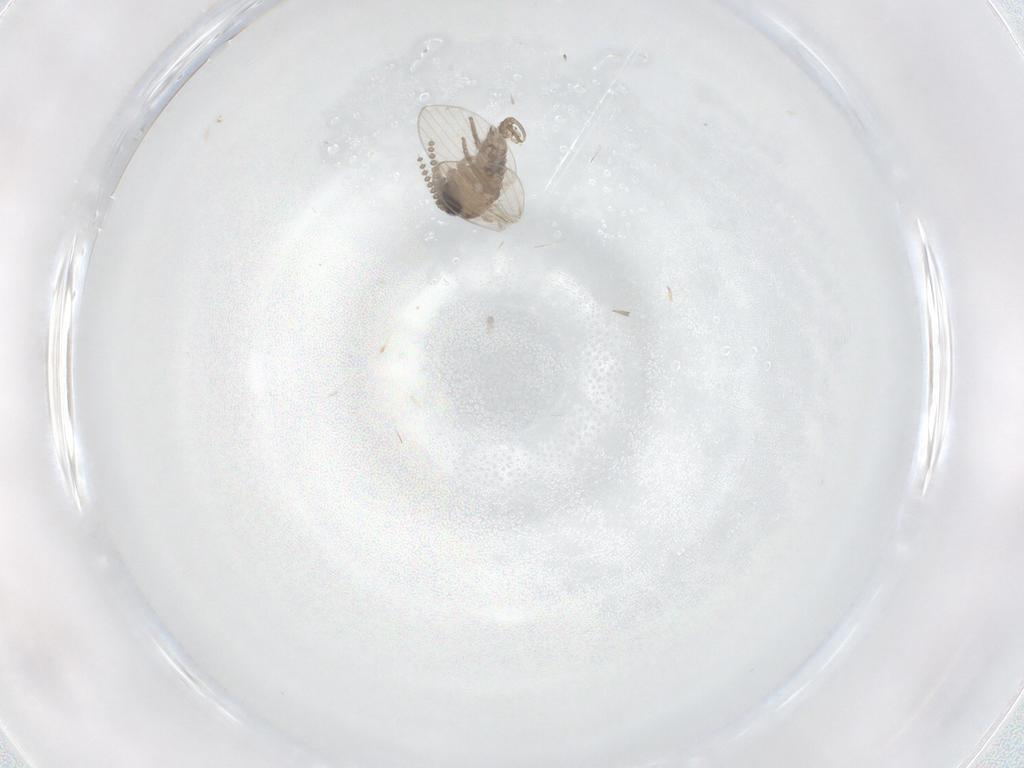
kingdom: Animalia
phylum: Arthropoda
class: Insecta
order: Diptera
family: Psychodidae
